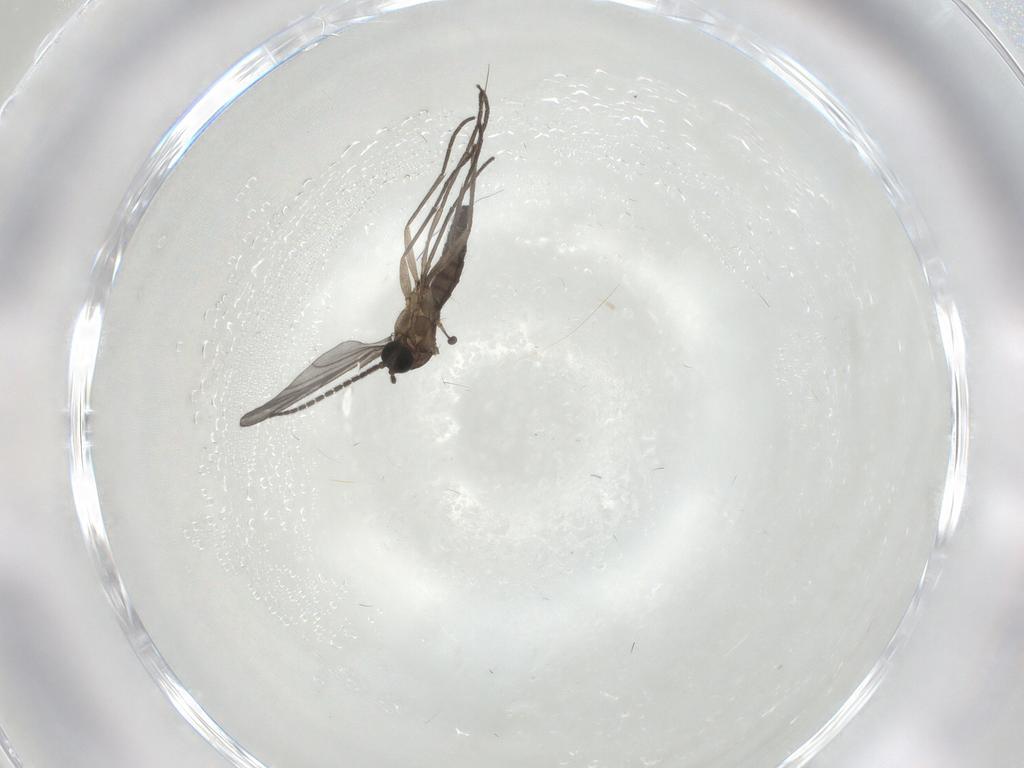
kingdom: Animalia
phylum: Arthropoda
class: Insecta
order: Diptera
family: Sciaridae
